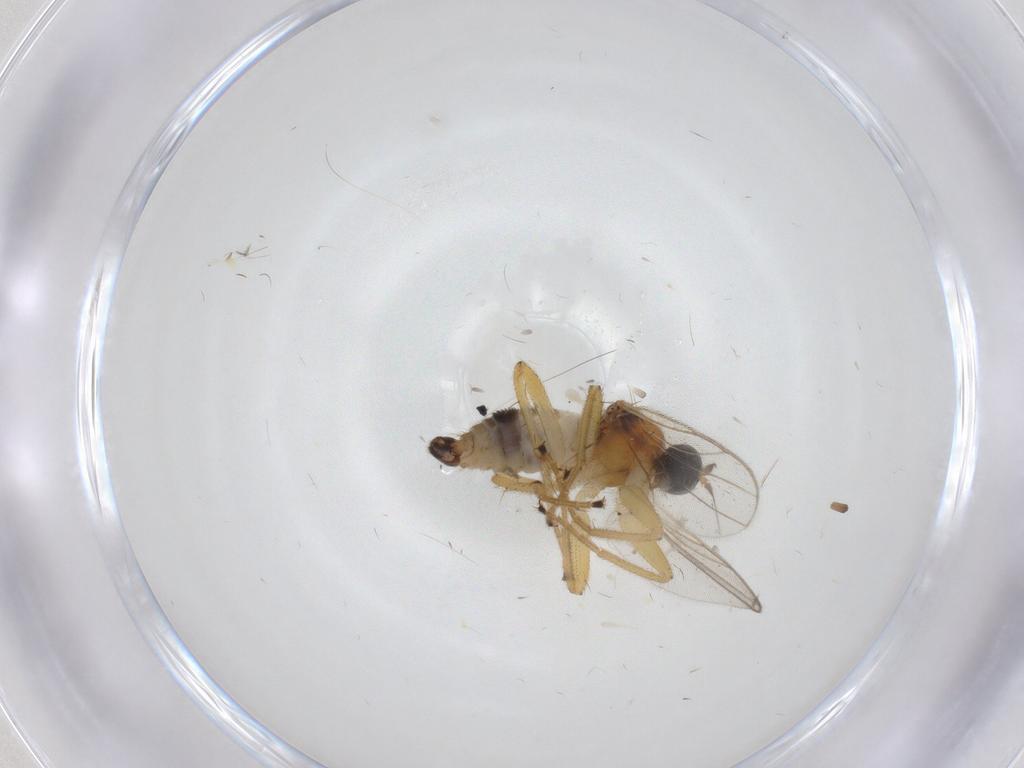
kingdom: Animalia
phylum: Arthropoda
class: Insecta
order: Diptera
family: Hybotidae
